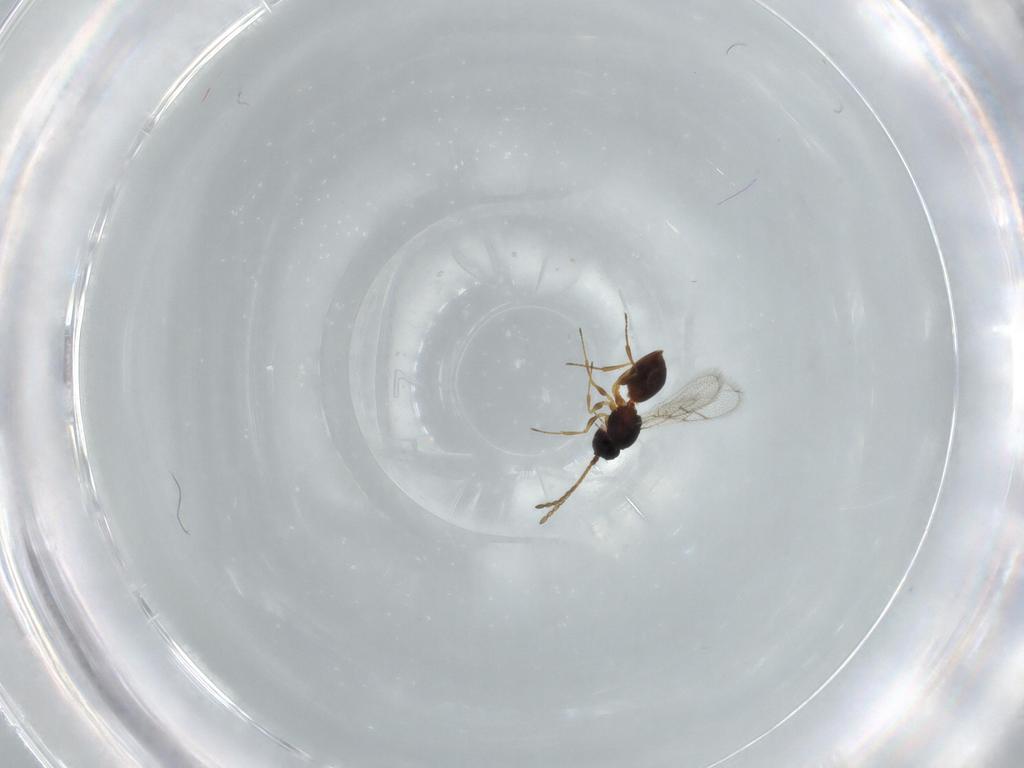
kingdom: Animalia
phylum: Arthropoda
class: Insecta
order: Hymenoptera
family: Figitidae
